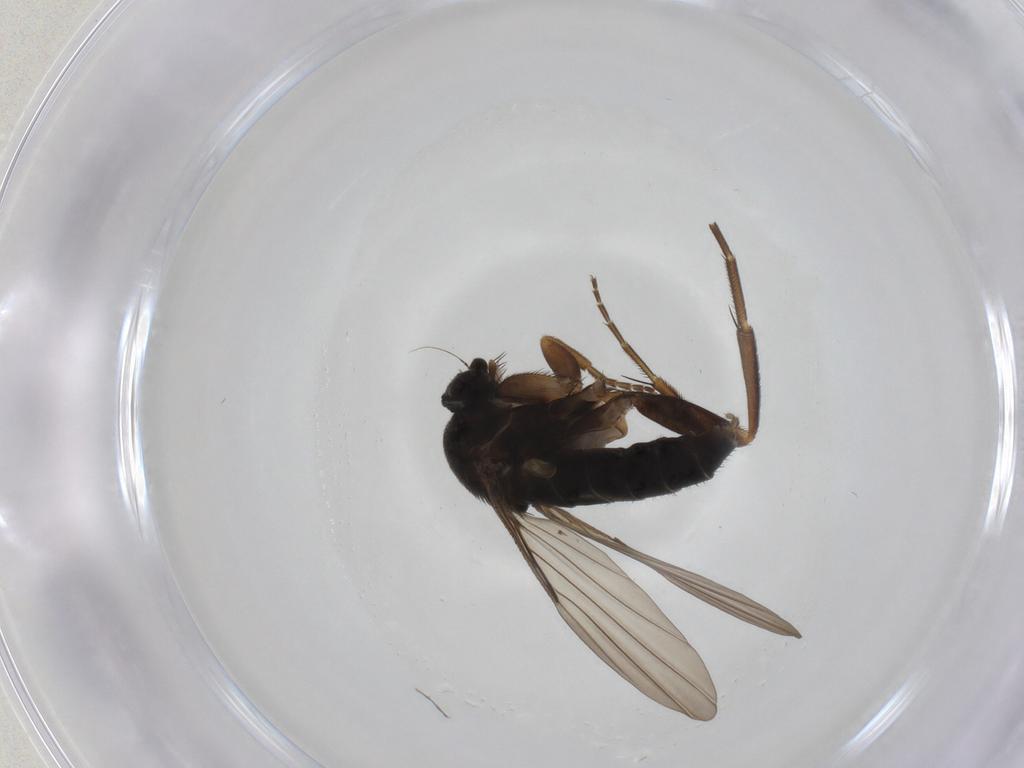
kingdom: Animalia
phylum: Arthropoda
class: Insecta
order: Diptera
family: Phoridae
